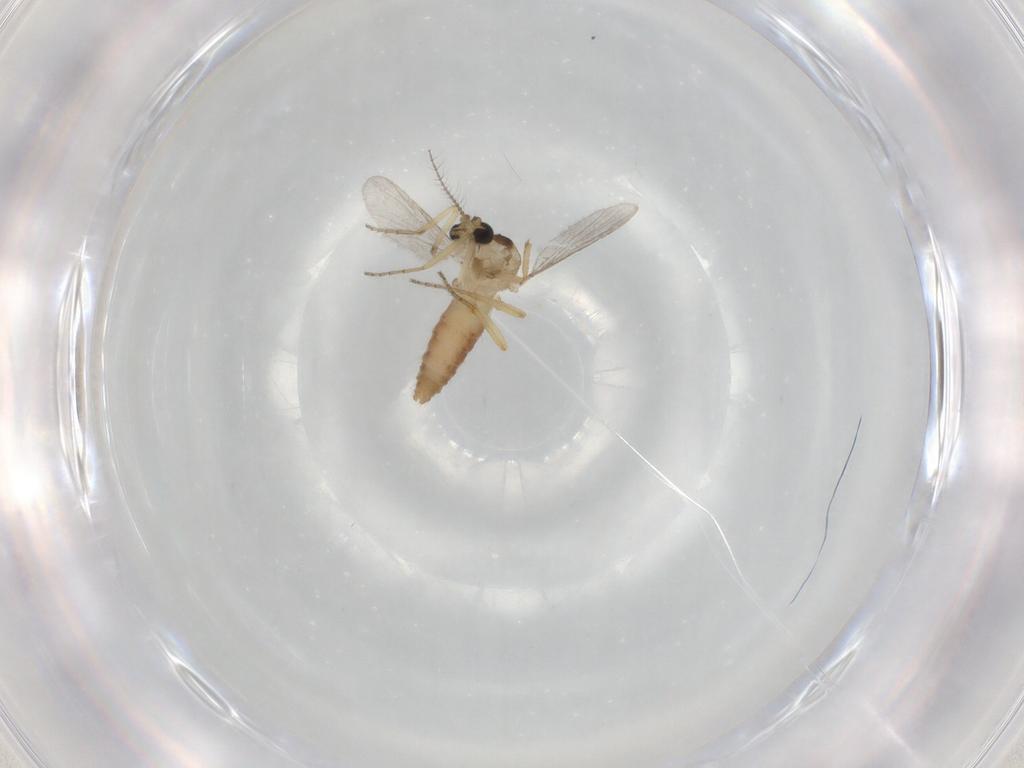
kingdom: Animalia
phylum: Arthropoda
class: Insecta
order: Diptera
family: Ceratopogonidae
